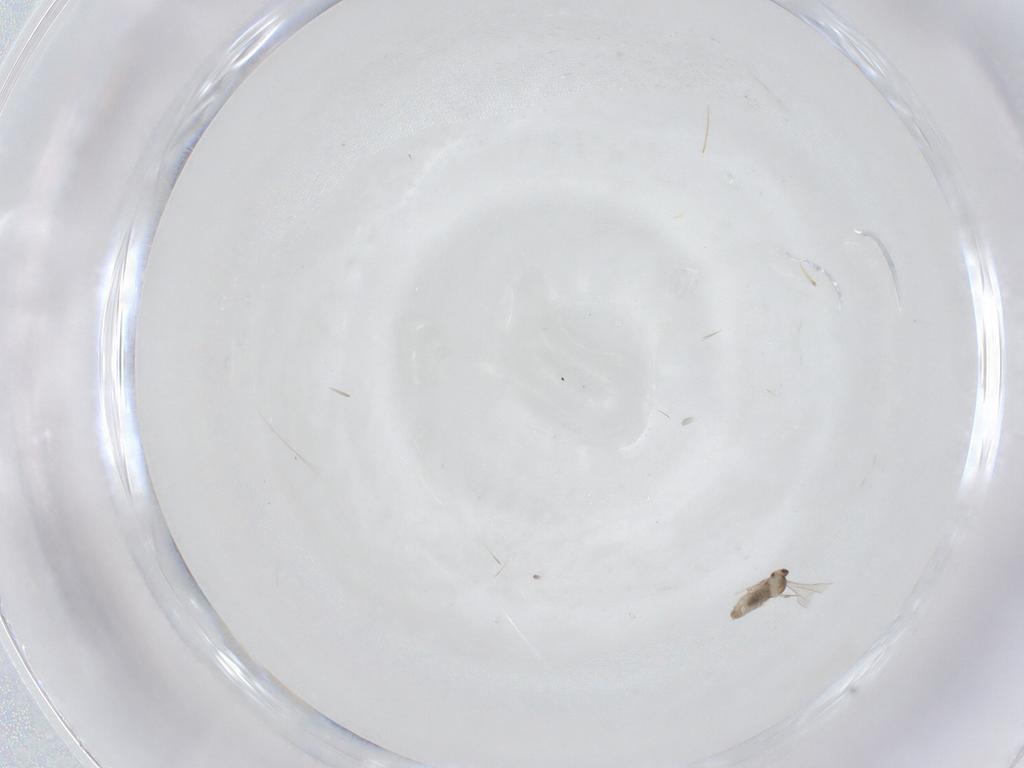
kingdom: Animalia
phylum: Arthropoda
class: Insecta
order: Diptera
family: Cecidomyiidae
